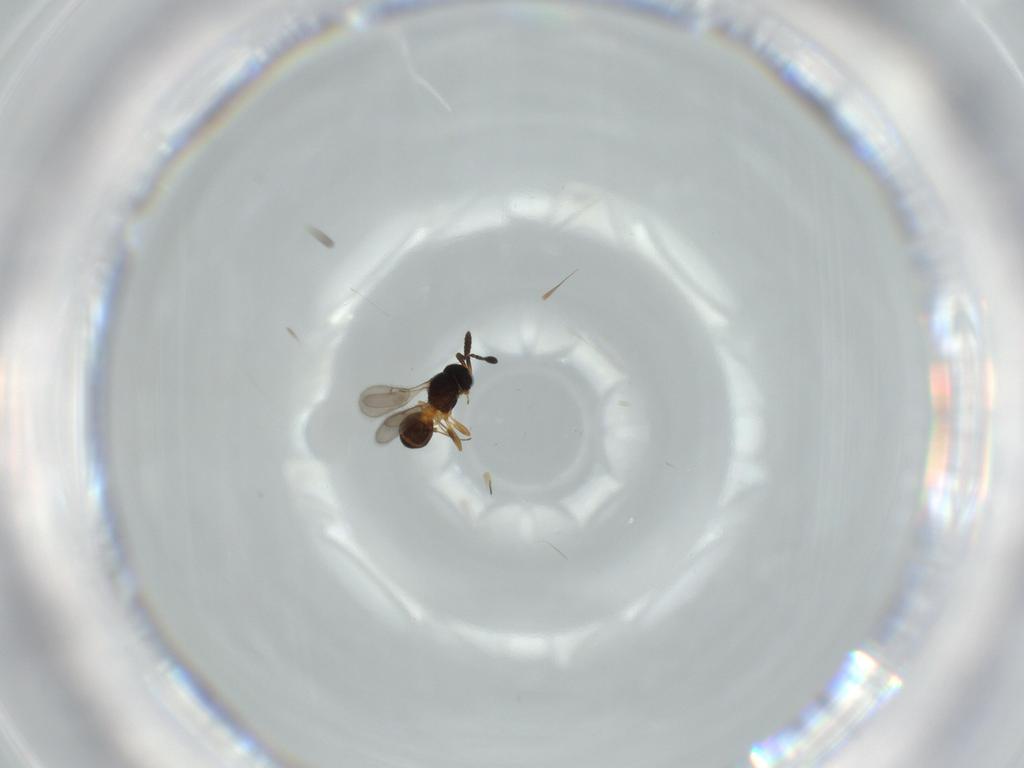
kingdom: Animalia
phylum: Arthropoda
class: Insecta
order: Hymenoptera
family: Scelionidae
